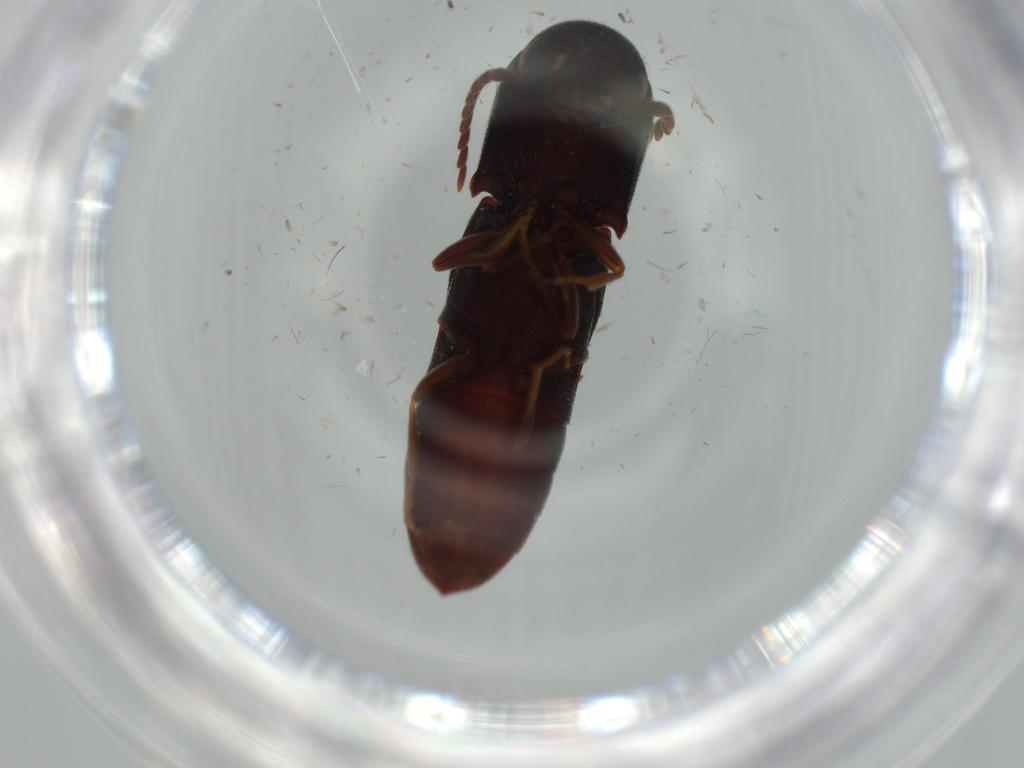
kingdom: Animalia
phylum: Arthropoda
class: Insecta
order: Coleoptera
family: Eucnemidae
